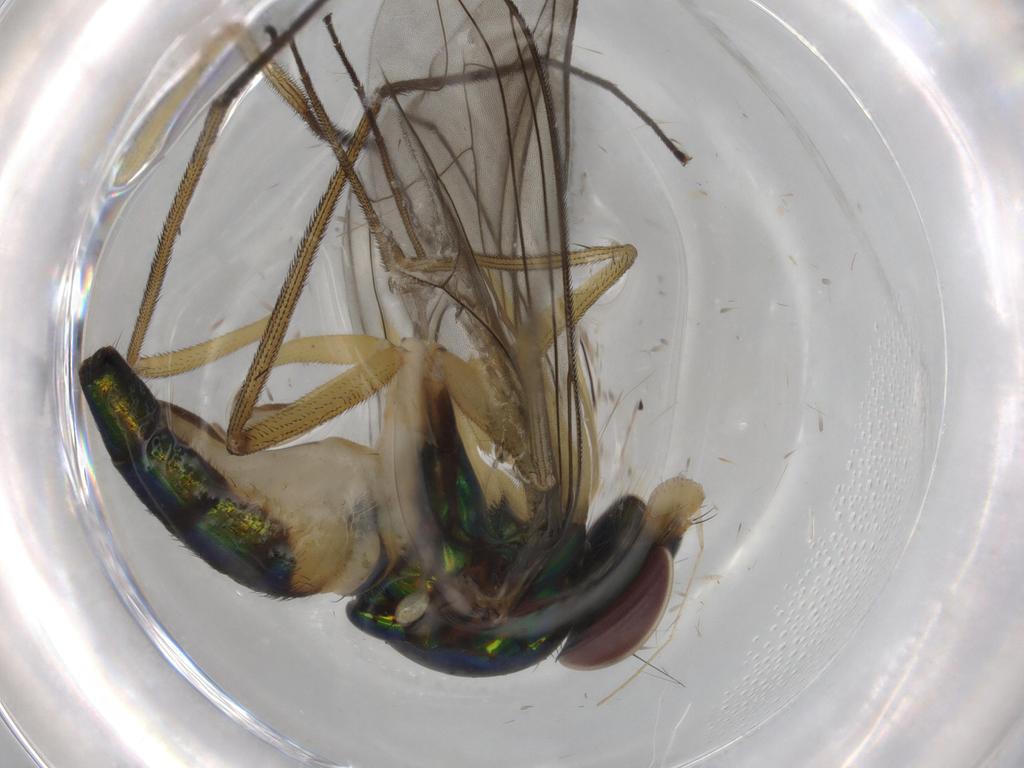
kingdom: Animalia
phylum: Arthropoda
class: Insecta
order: Diptera
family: Dolichopodidae
